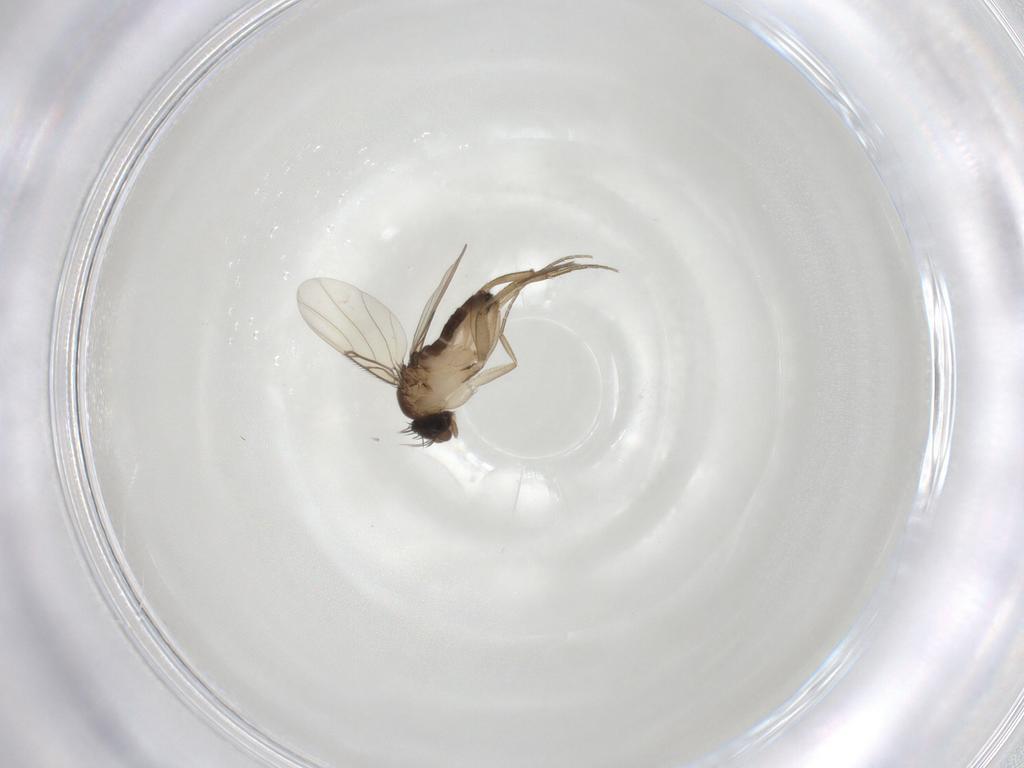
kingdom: Animalia
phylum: Arthropoda
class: Insecta
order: Diptera
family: Phoridae
